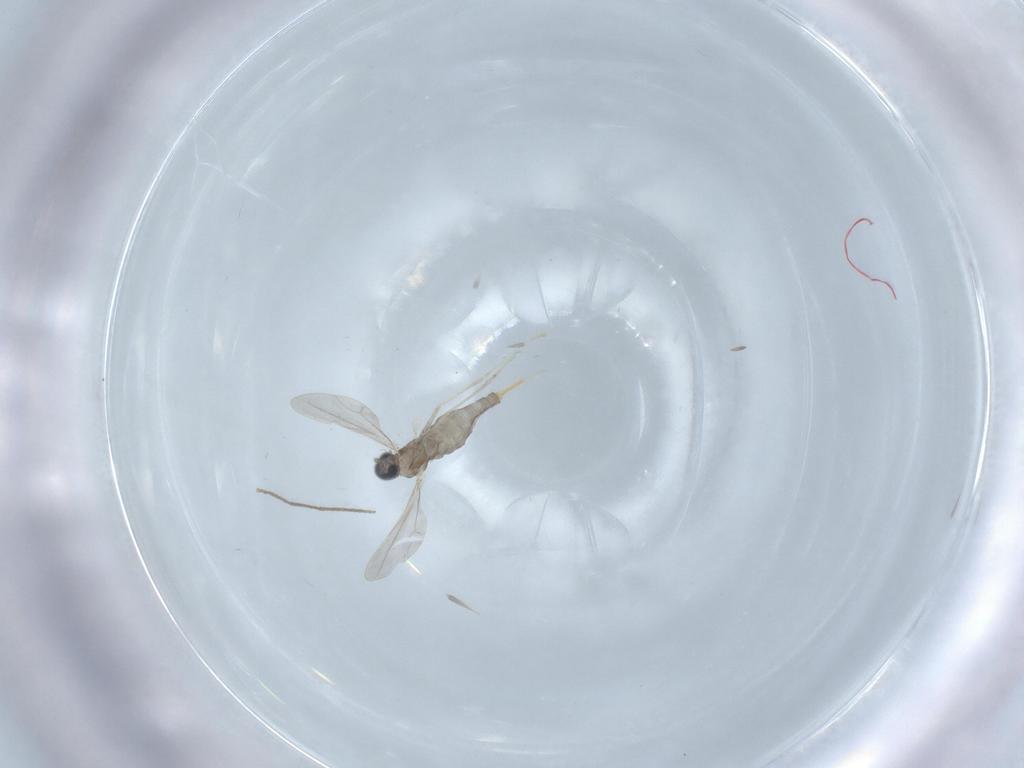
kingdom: Animalia
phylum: Arthropoda
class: Insecta
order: Diptera
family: Cecidomyiidae
